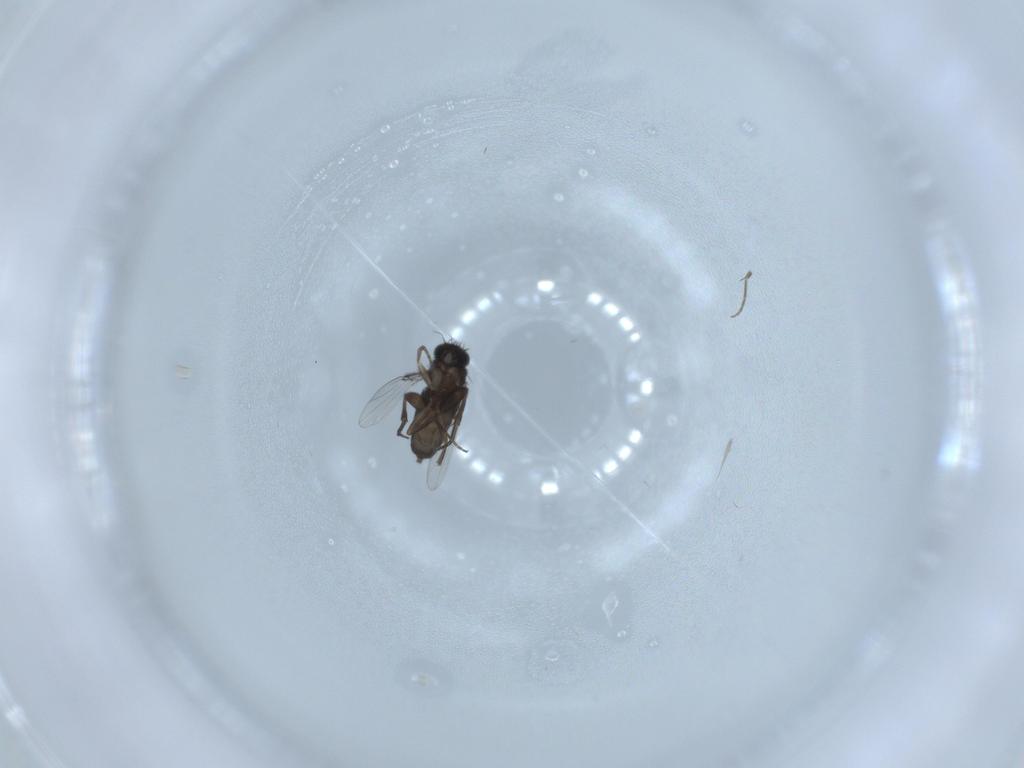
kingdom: Animalia
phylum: Arthropoda
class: Insecta
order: Diptera
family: Phoridae
